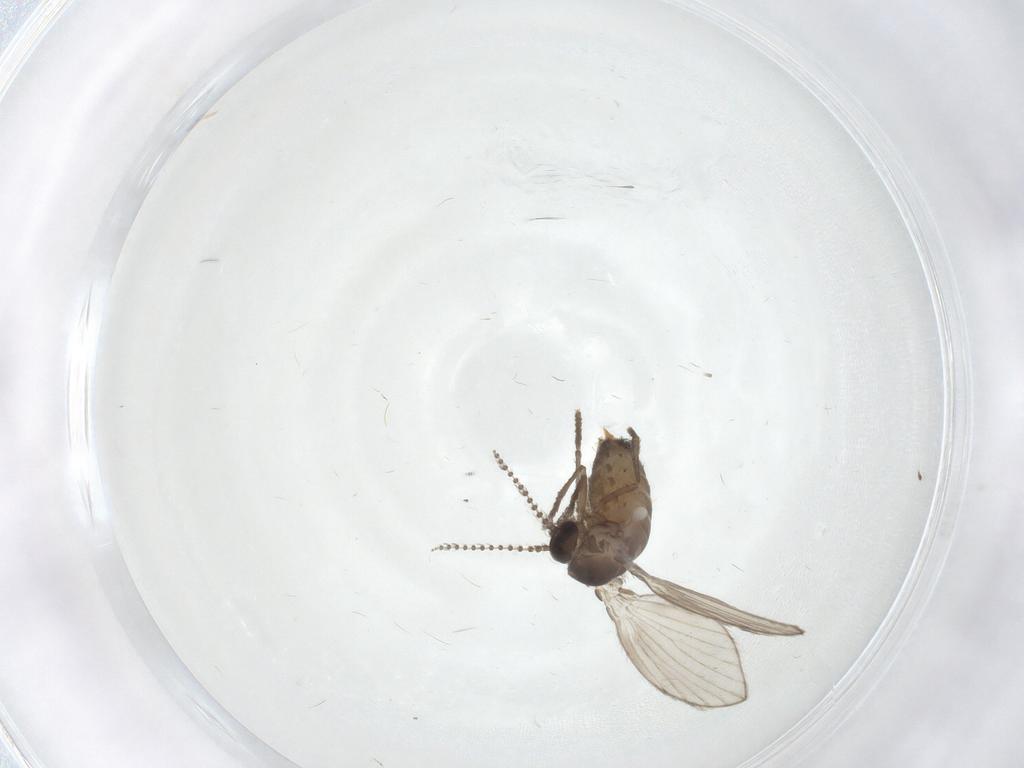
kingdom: Animalia
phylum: Arthropoda
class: Insecta
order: Diptera
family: Psychodidae
